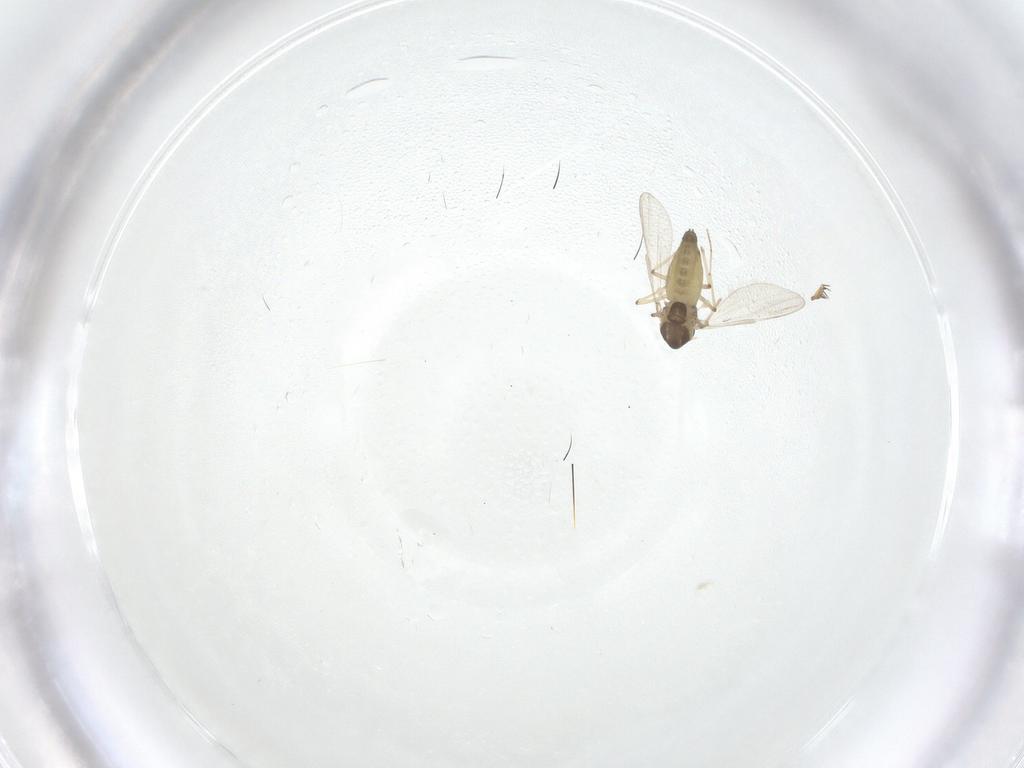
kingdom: Animalia
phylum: Arthropoda
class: Insecta
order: Diptera
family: Chironomidae
